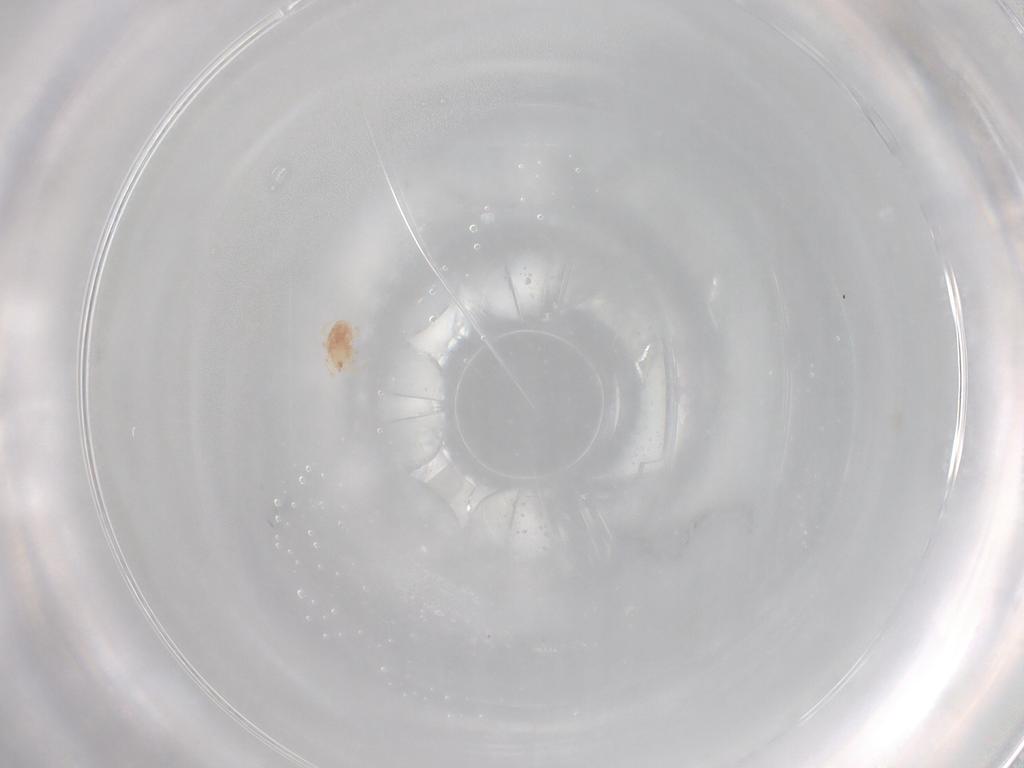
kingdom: Animalia
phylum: Arthropoda
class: Arachnida
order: Mesostigmata
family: Phytoseiidae
